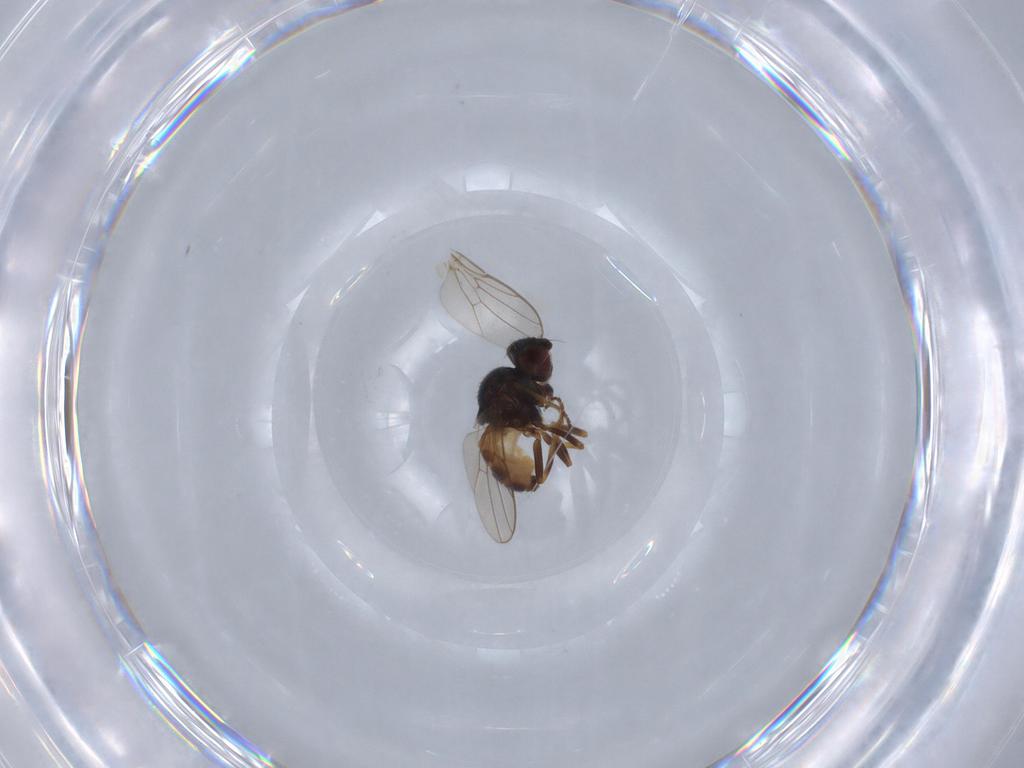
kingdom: Animalia
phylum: Arthropoda
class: Insecta
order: Diptera
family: Chloropidae
